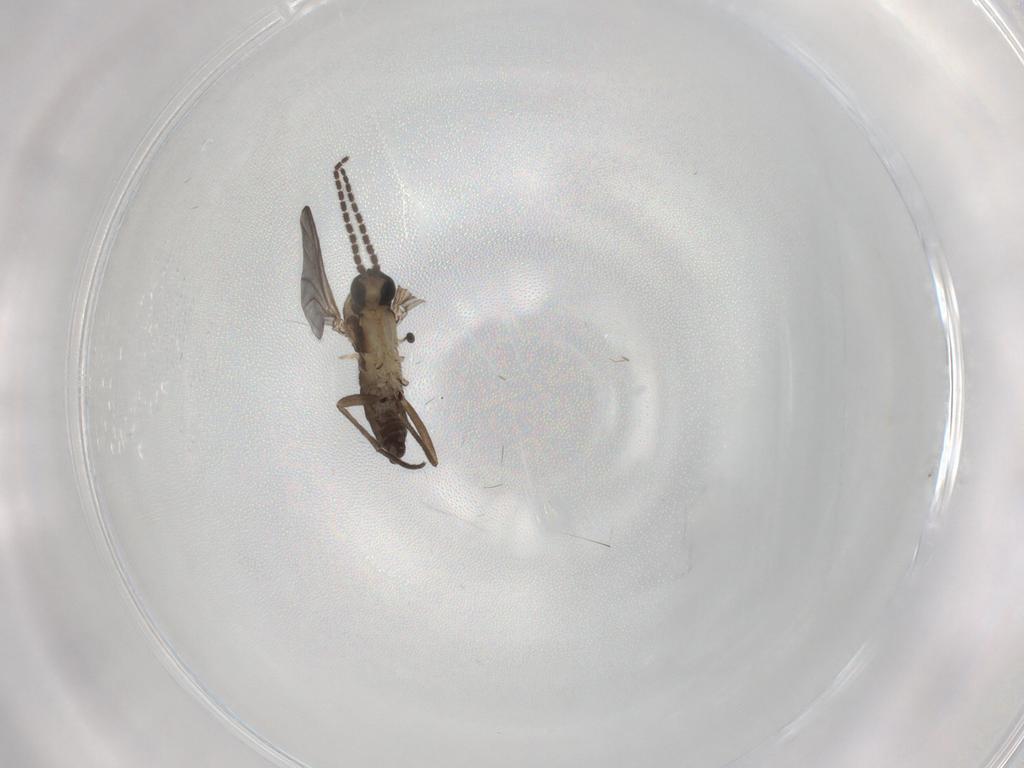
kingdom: Animalia
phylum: Arthropoda
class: Insecta
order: Diptera
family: Sciaridae
